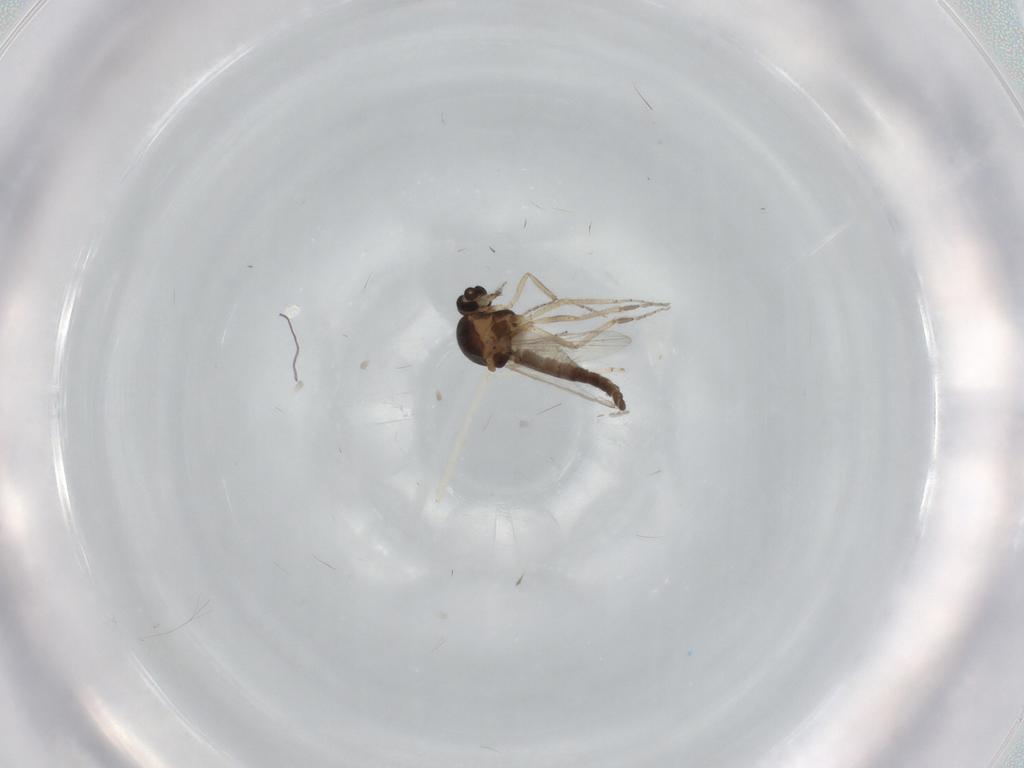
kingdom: Animalia
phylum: Arthropoda
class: Insecta
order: Diptera
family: Ceratopogonidae
